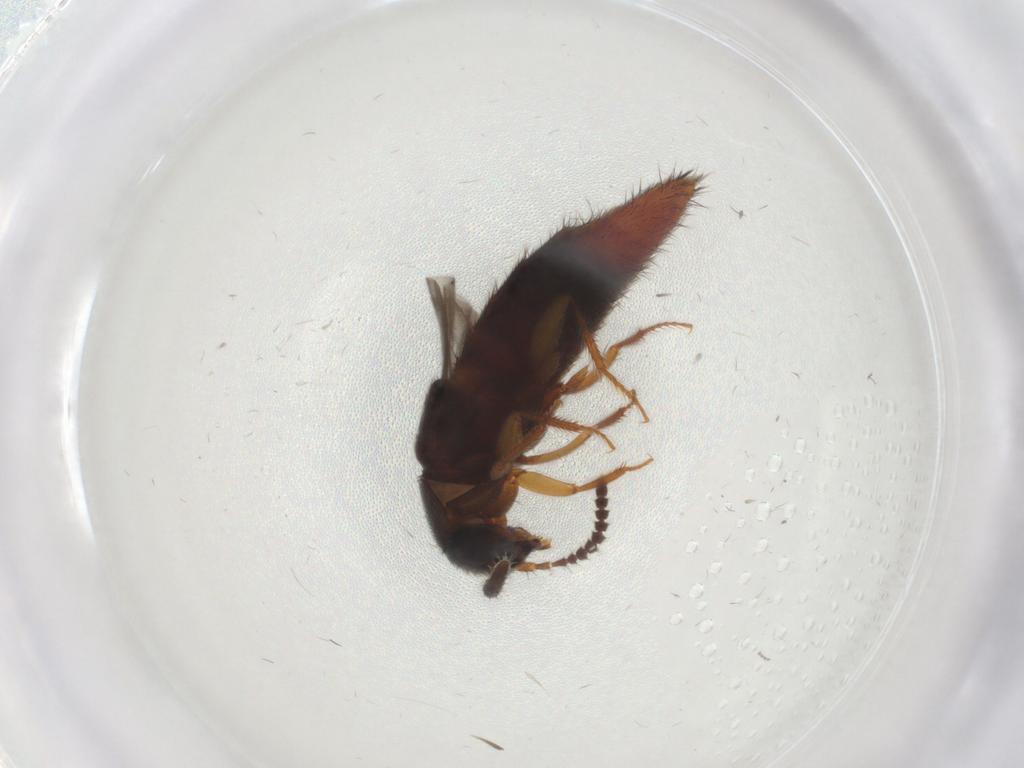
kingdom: Animalia
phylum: Arthropoda
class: Insecta
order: Coleoptera
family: Staphylinidae
